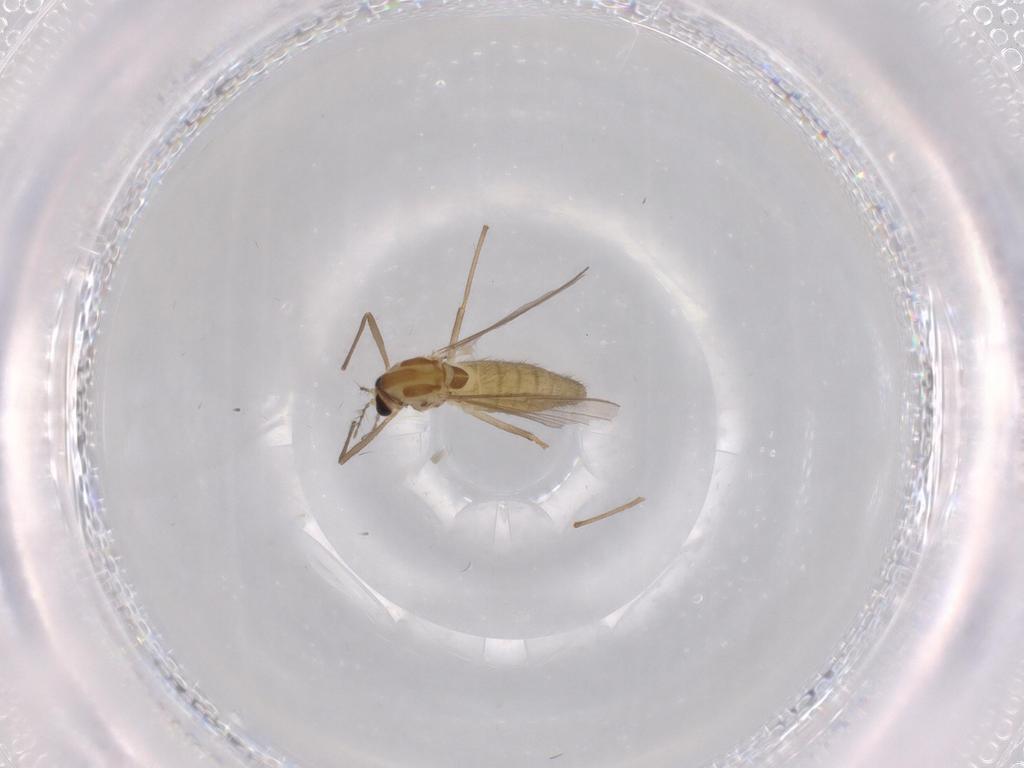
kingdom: Animalia
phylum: Arthropoda
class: Insecta
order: Diptera
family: Chironomidae
